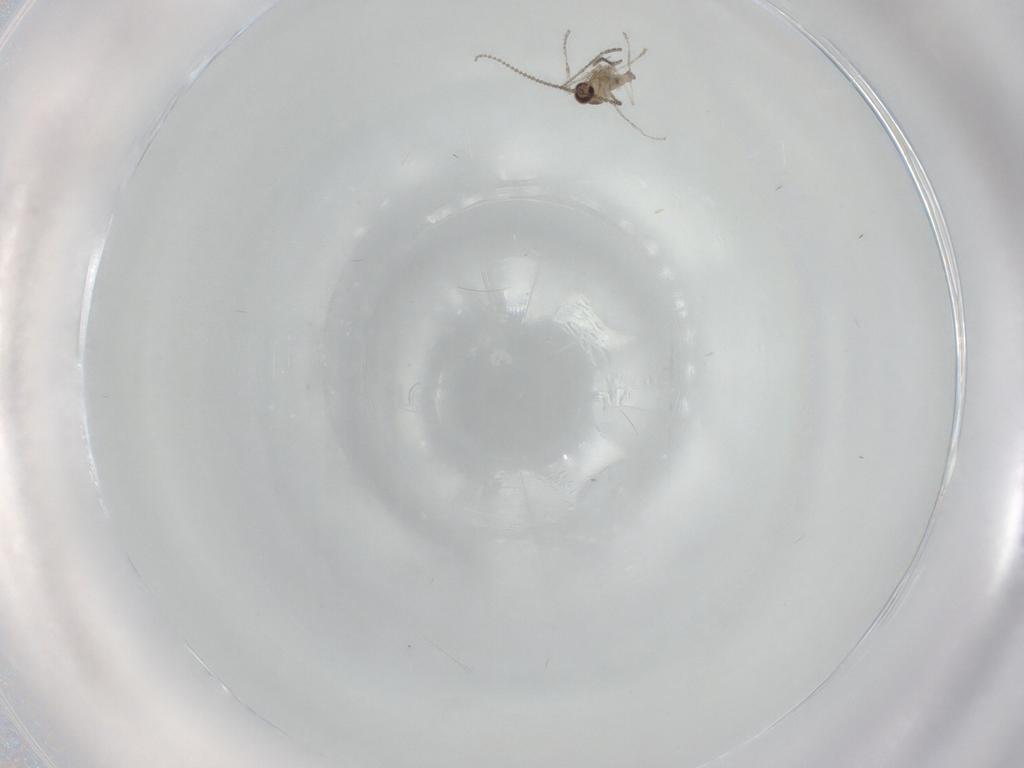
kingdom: Animalia
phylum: Arthropoda
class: Insecta
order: Diptera
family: Cecidomyiidae
